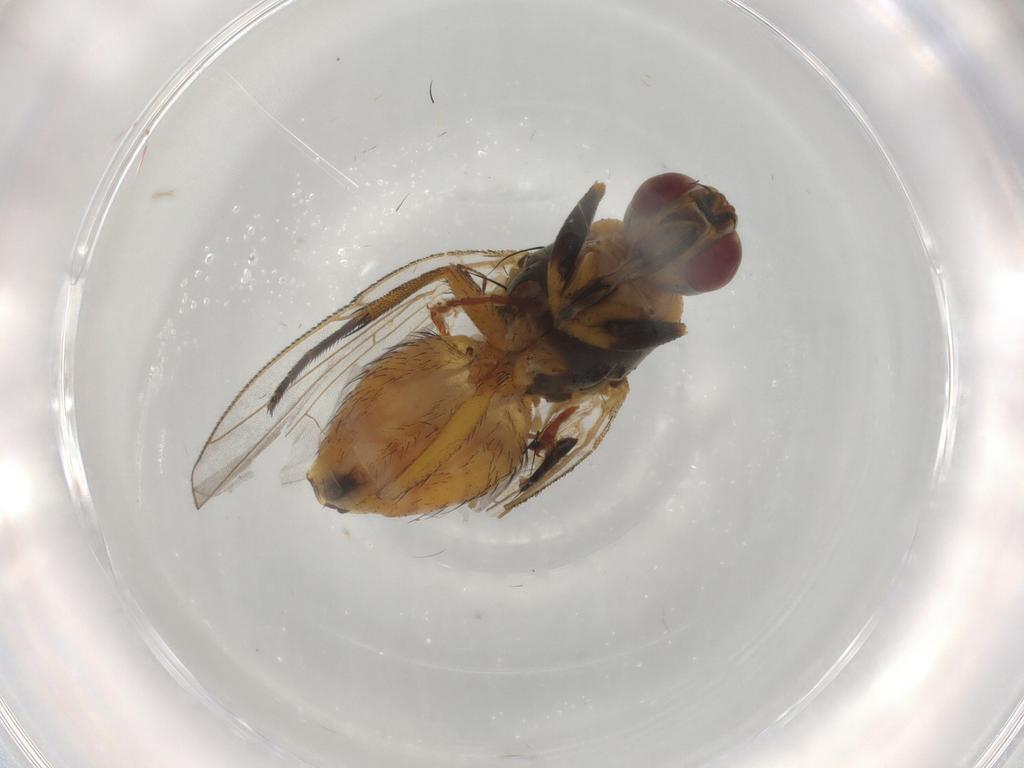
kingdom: Animalia
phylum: Arthropoda
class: Insecta
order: Diptera
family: Muscidae
